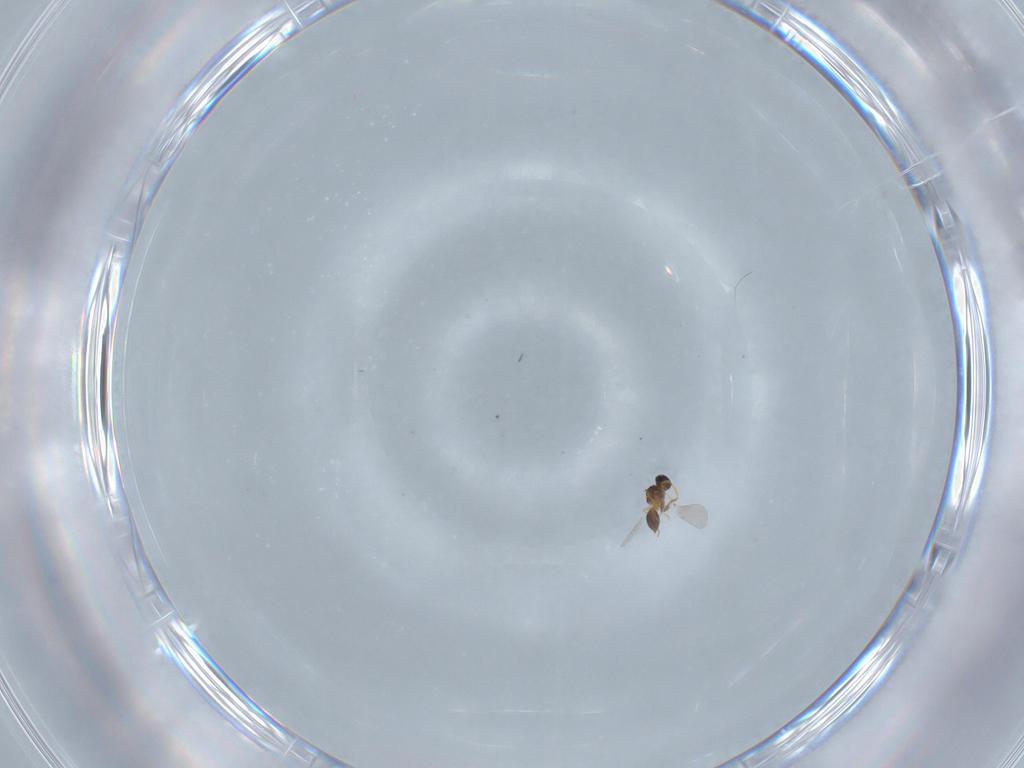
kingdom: Animalia
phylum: Arthropoda
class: Insecta
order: Hymenoptera
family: Platygastridae
